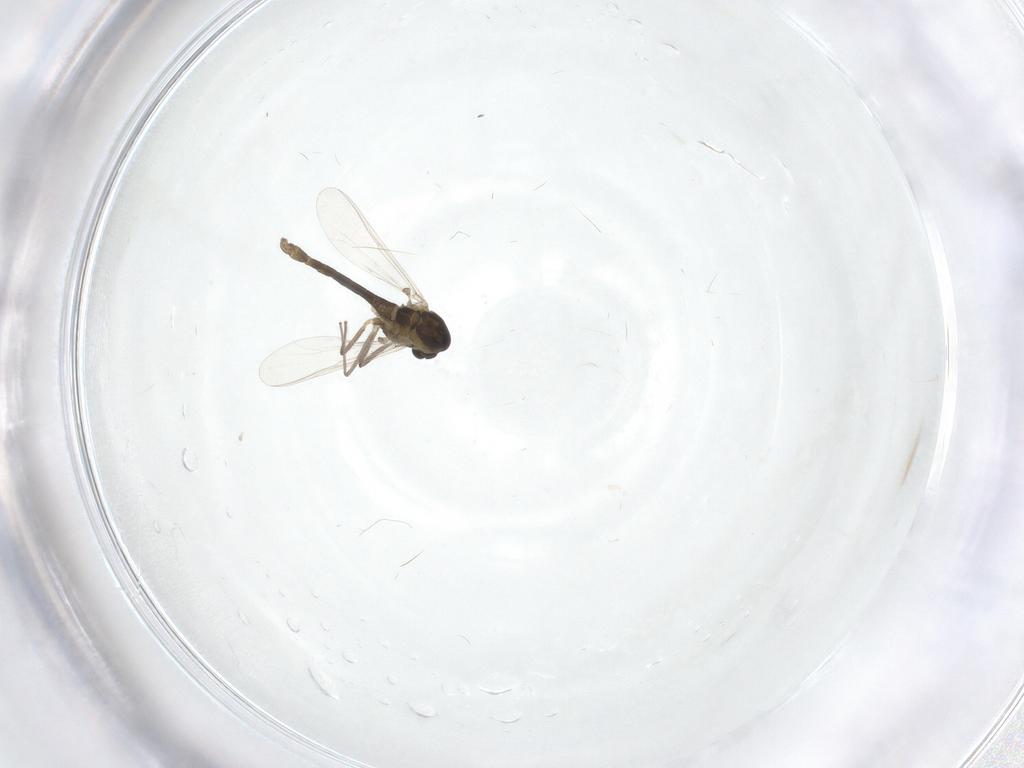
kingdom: Animalia
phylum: Arthropoda
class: Insecta
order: Diptera
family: Chironomidae
